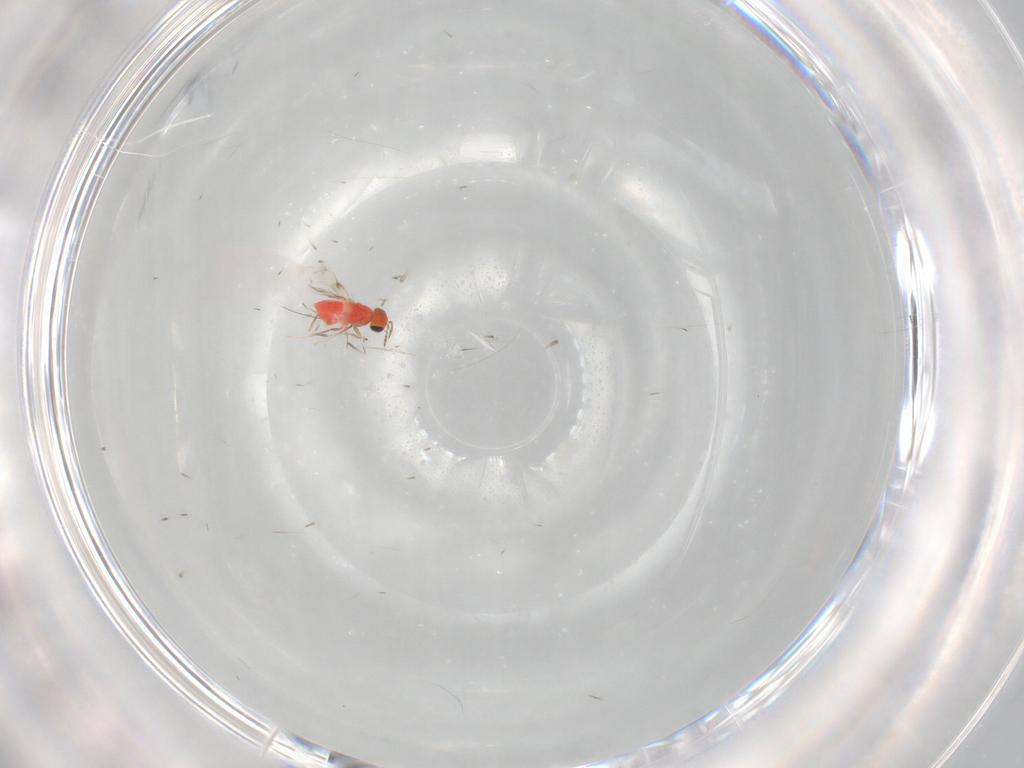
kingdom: Animalia
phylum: Arthropoda
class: Insecta
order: Hymenoptera
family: Trichogrammatidae
